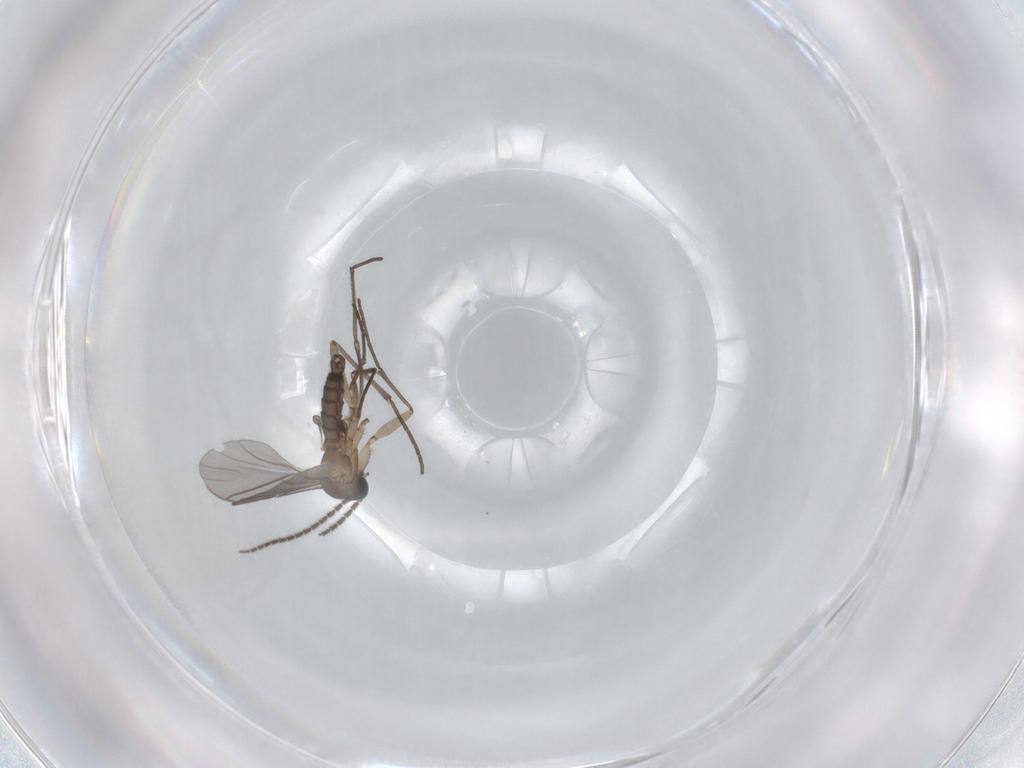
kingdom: Animalia
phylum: Arthropoda
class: Insecta
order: Diptera
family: Sciaridae
